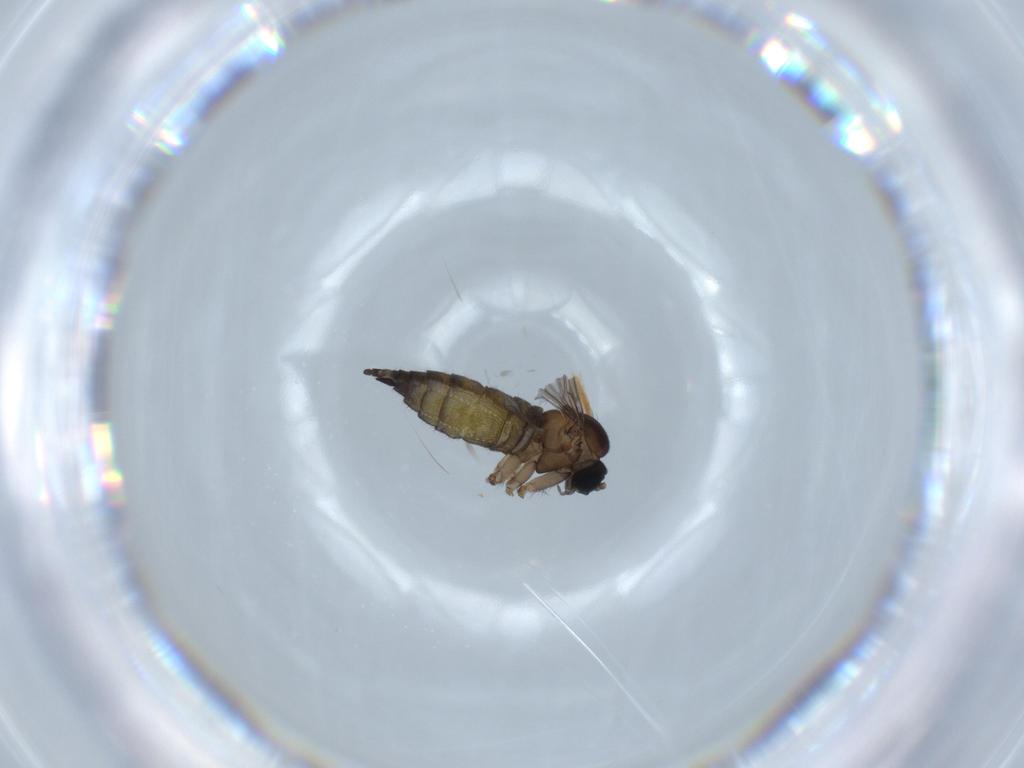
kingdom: Animalia
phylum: Arthropoda
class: Insecta
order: Diptera
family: Sciaridae
